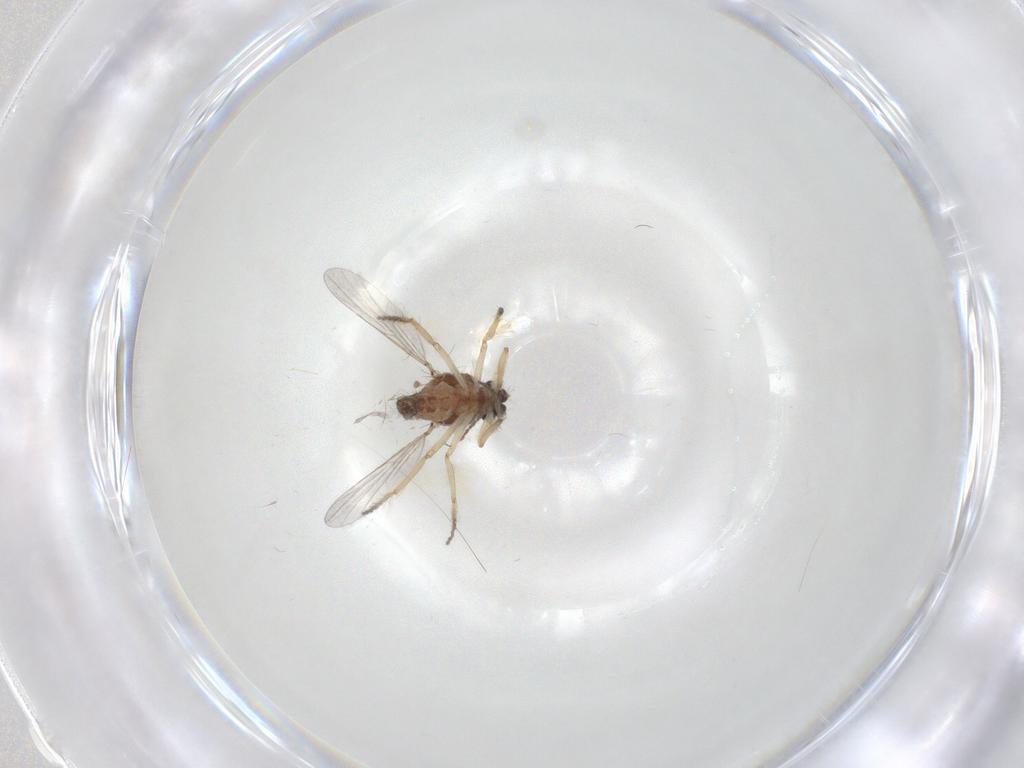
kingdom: Animalia
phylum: Arthropoda
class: Insecta
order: Diptera
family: Ceratopogonidae
